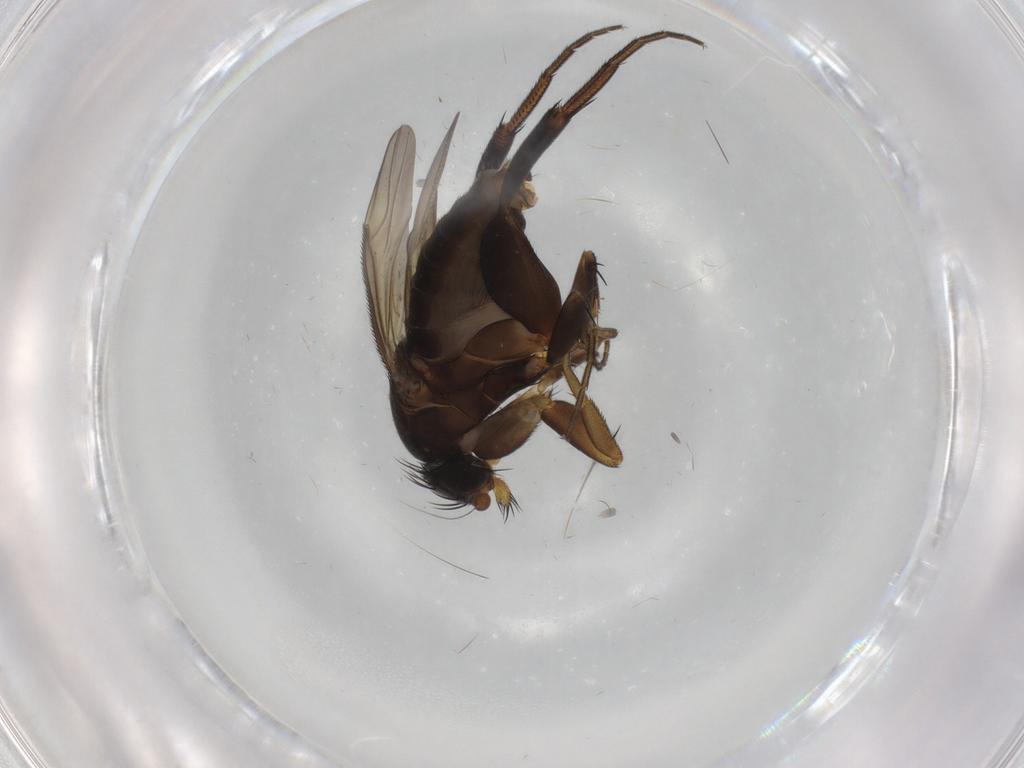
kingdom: Animalia
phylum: Arthropoda
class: Insecta
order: Diptera
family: Phoridae
